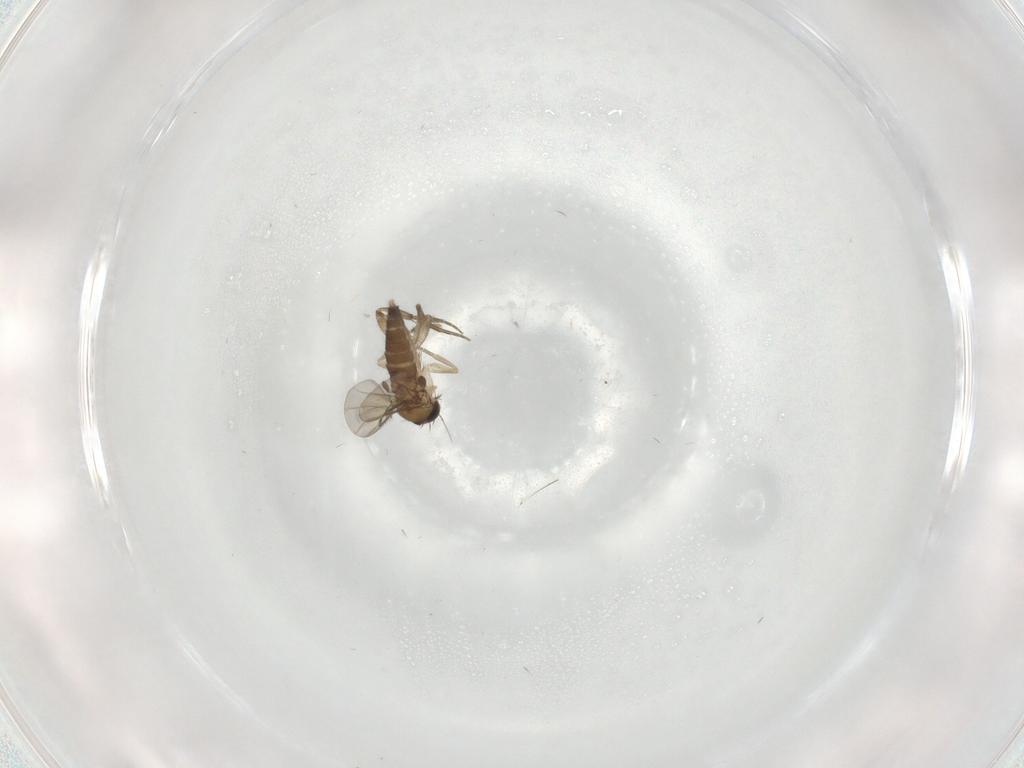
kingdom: Animalia
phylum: Arthropoda
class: Insecta
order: Diptera
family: Phoridae
